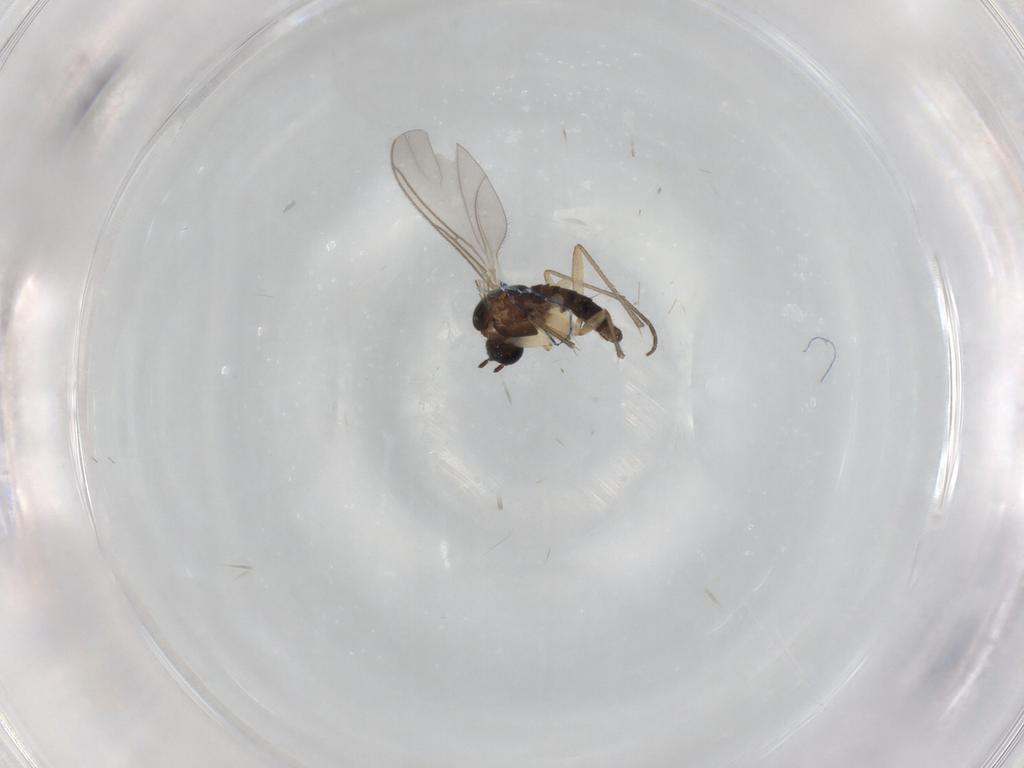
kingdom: Animalia
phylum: Arthropoda
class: Insecta
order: Diptera
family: Sciaridae
